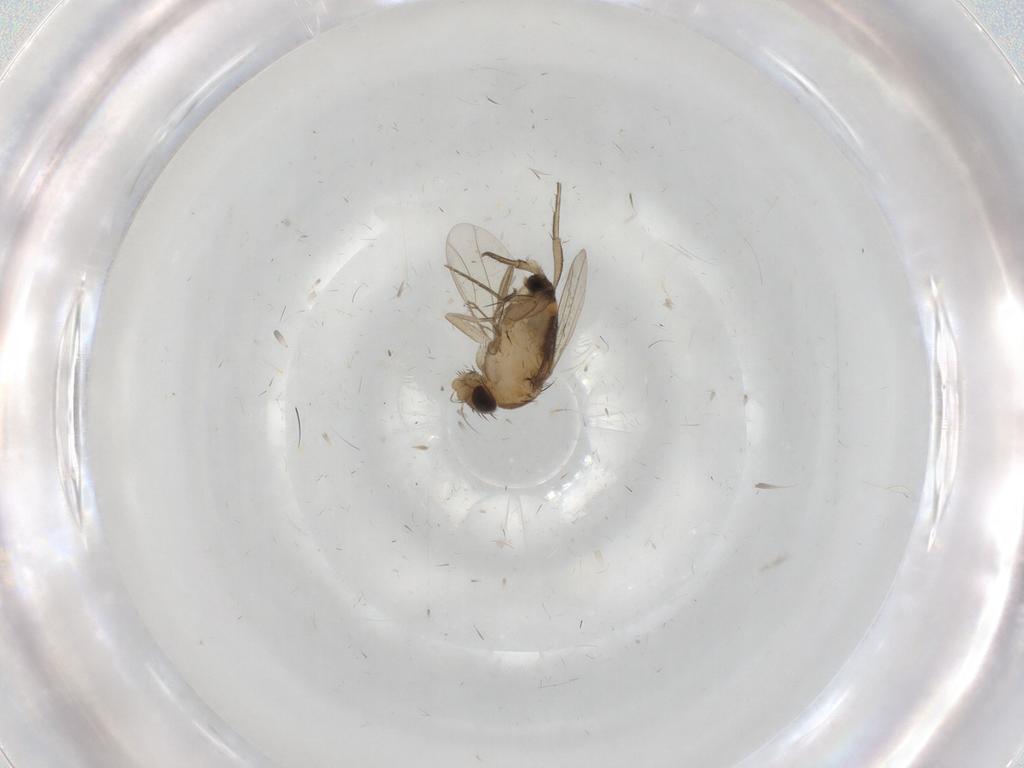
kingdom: Animalia
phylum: Arthropoda
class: Insecta
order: Diptera
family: Phoridae
